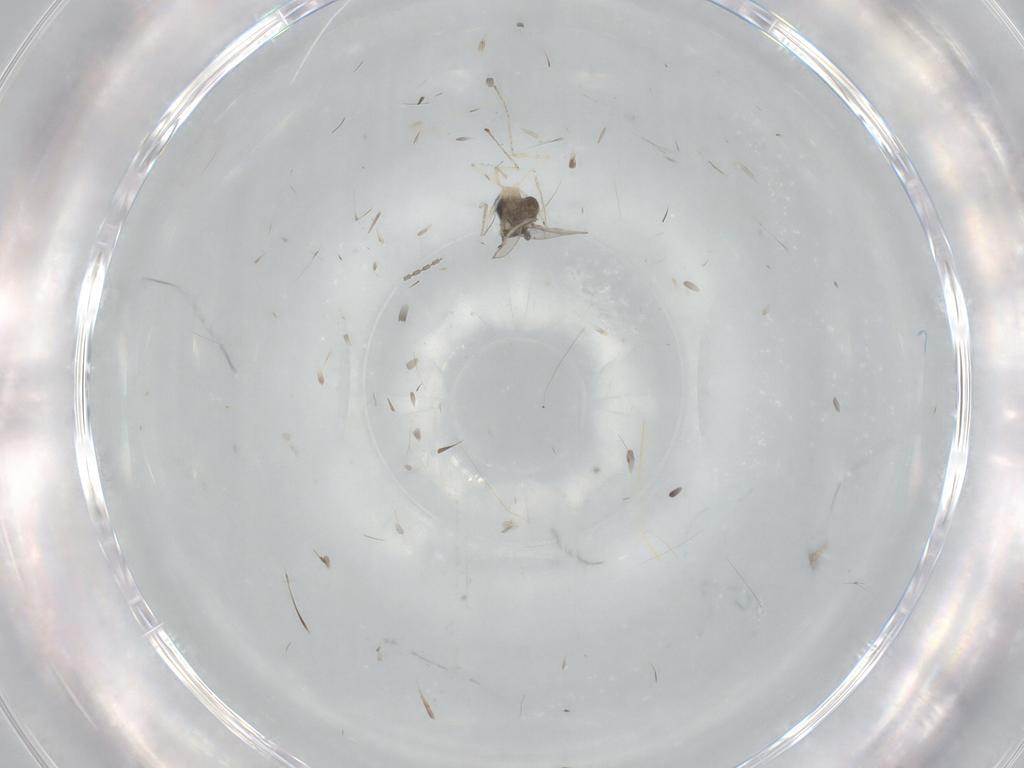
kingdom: Animalia
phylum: Arthropoda
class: Insecta
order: Diptera
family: Cecidomyiidae
